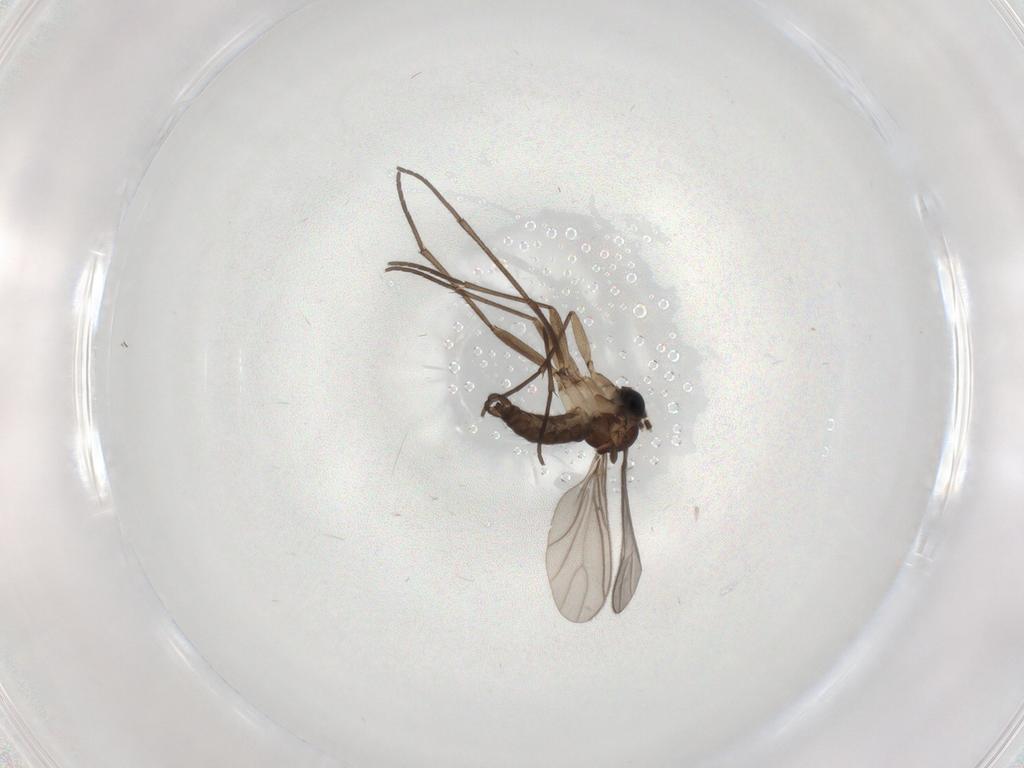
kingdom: Animalia
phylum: Arthropoda
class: Insecta
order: Diptera
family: Sciaridae
